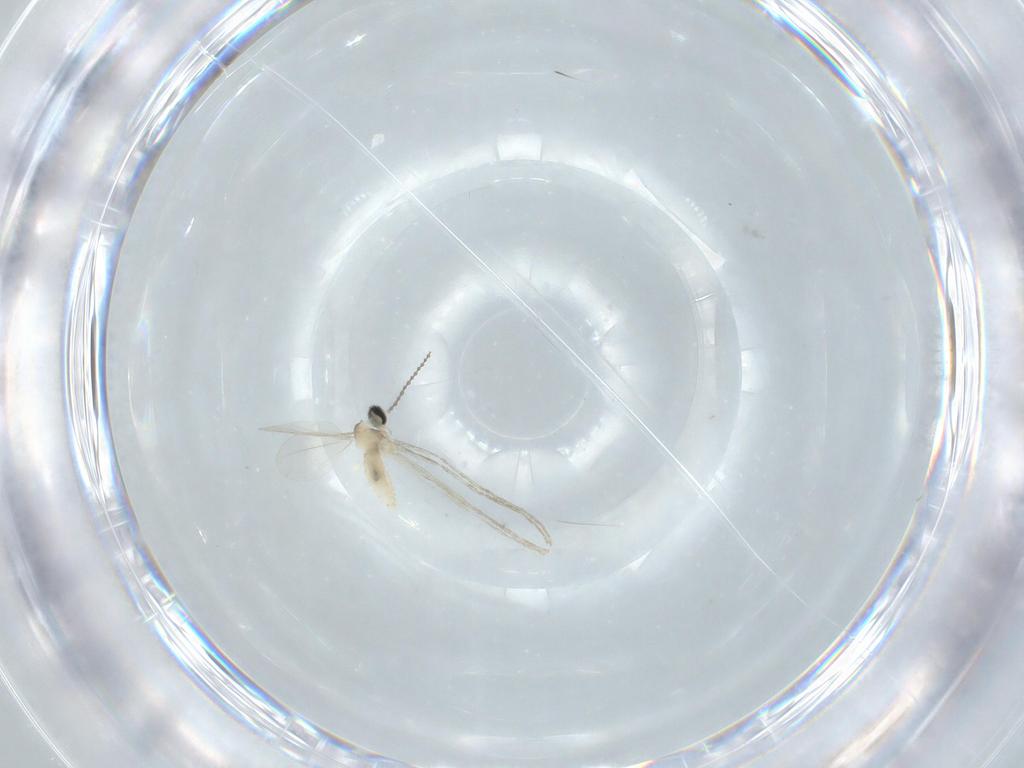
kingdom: Animalia
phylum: Arthropoda
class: Insecta
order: Diptera
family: Cecidomyiidae
